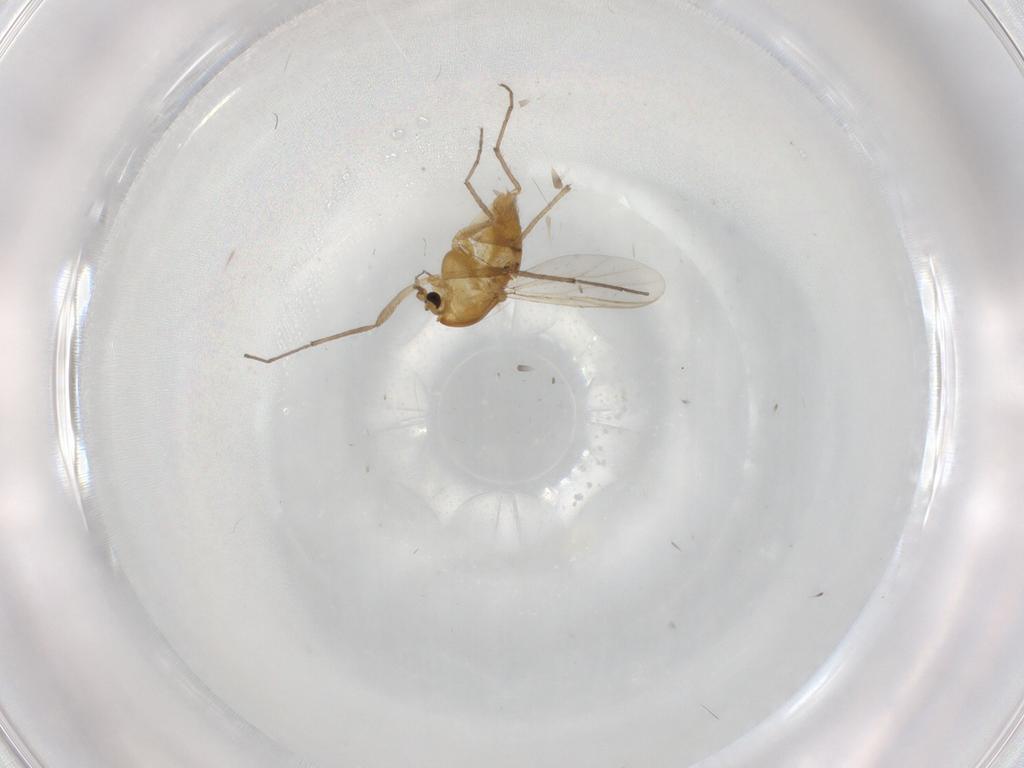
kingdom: Animalia
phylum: Arthropoda
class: Insecta
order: Diptera
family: Chironomidae
